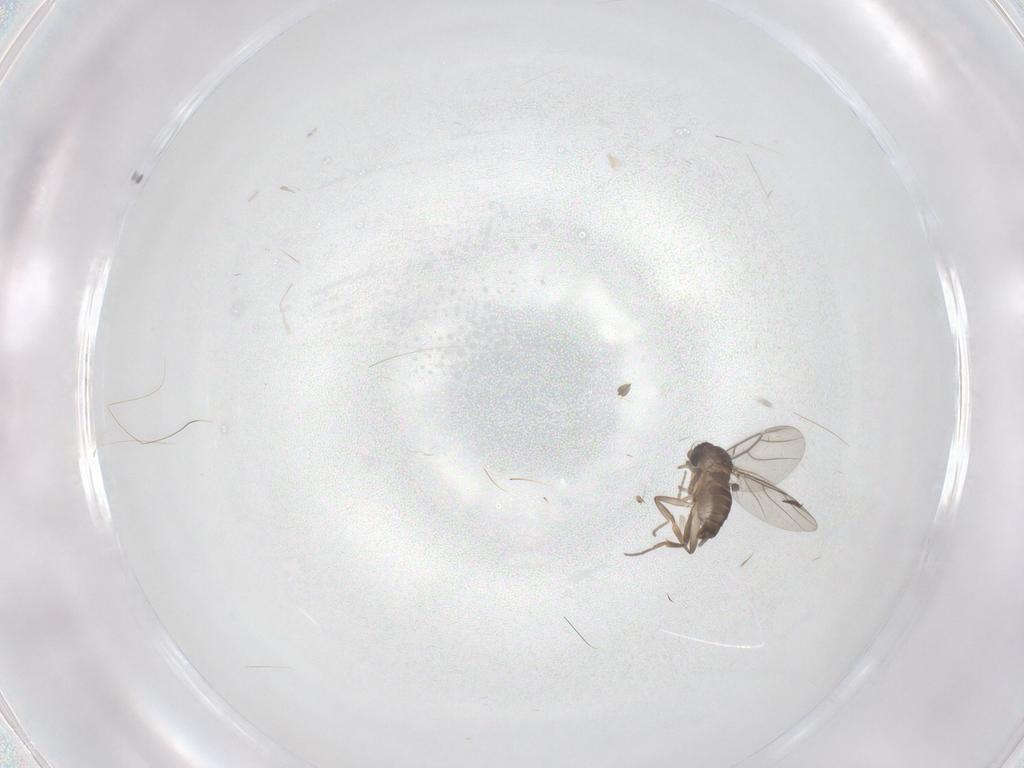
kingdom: Animalia
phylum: Arthropoda
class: Insecta
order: Diptera
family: Phoridae
